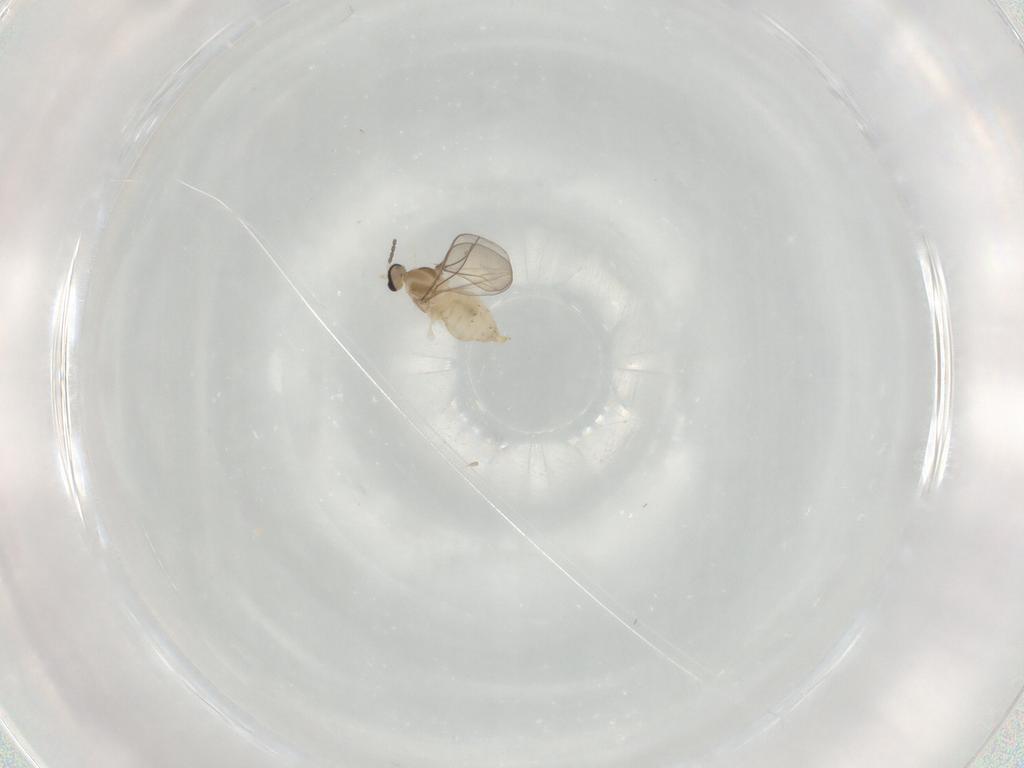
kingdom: Animalia
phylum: Arthropoda
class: Insecta
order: Diptera
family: Cecidomyiidae
